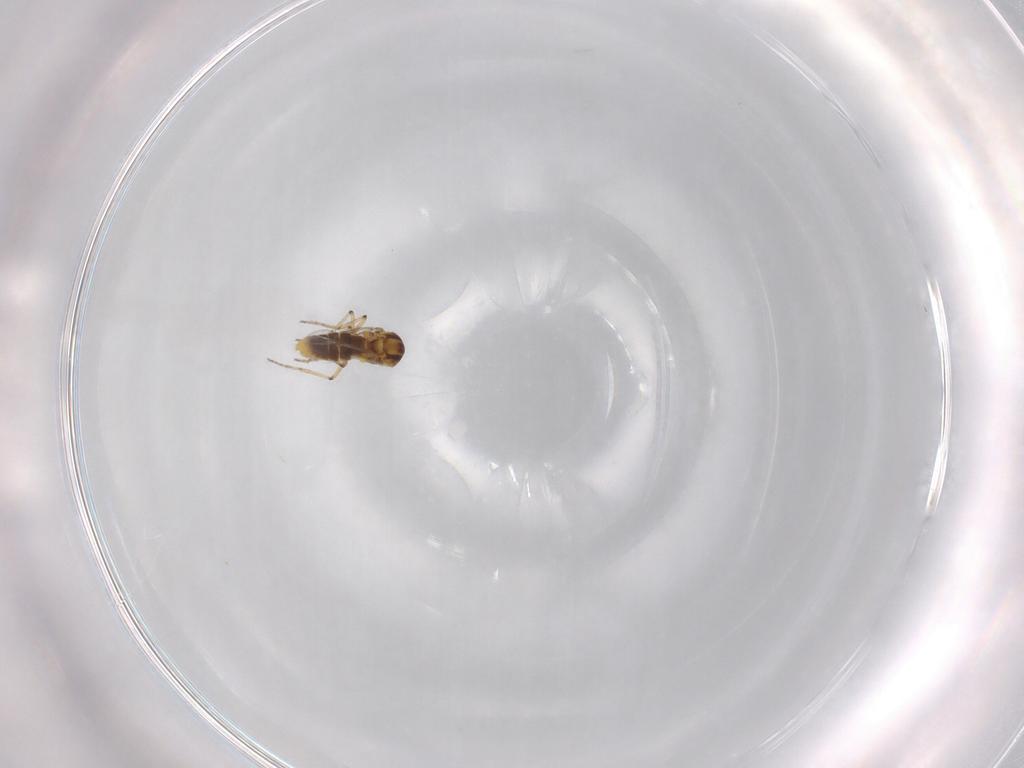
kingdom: Animalia
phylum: Arthropoda
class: Insecta
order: Diptera
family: Ceratopogonidae
